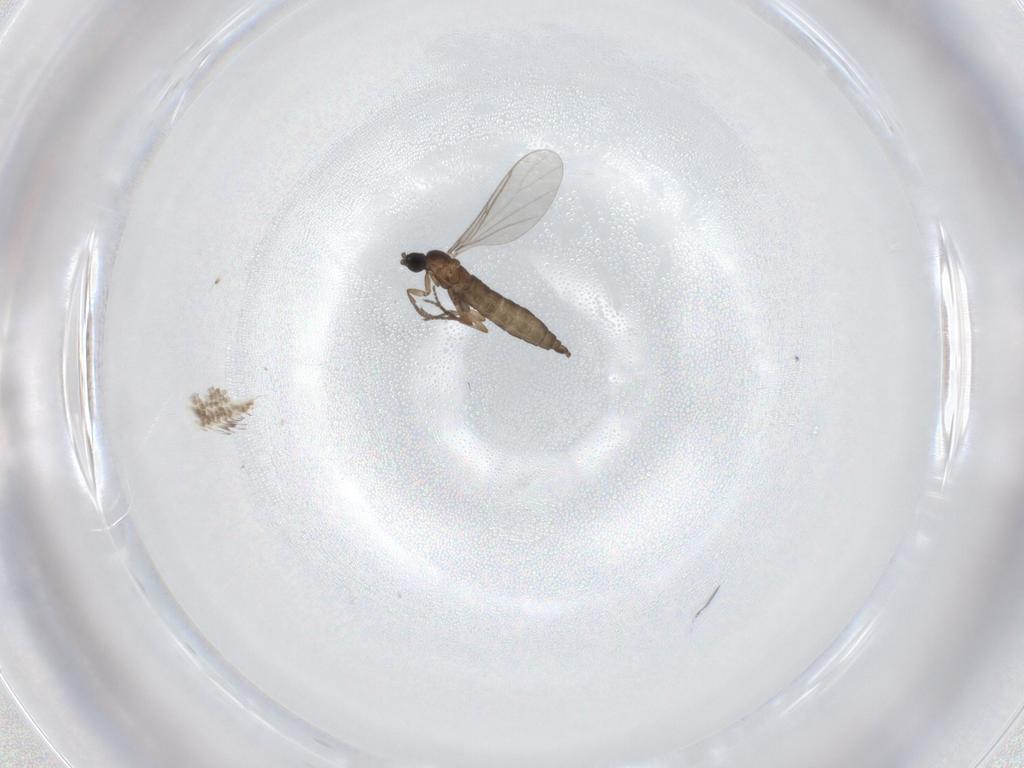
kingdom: Animalia
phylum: Arthropoda
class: Insecta
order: Diptera
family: Sciaridae
